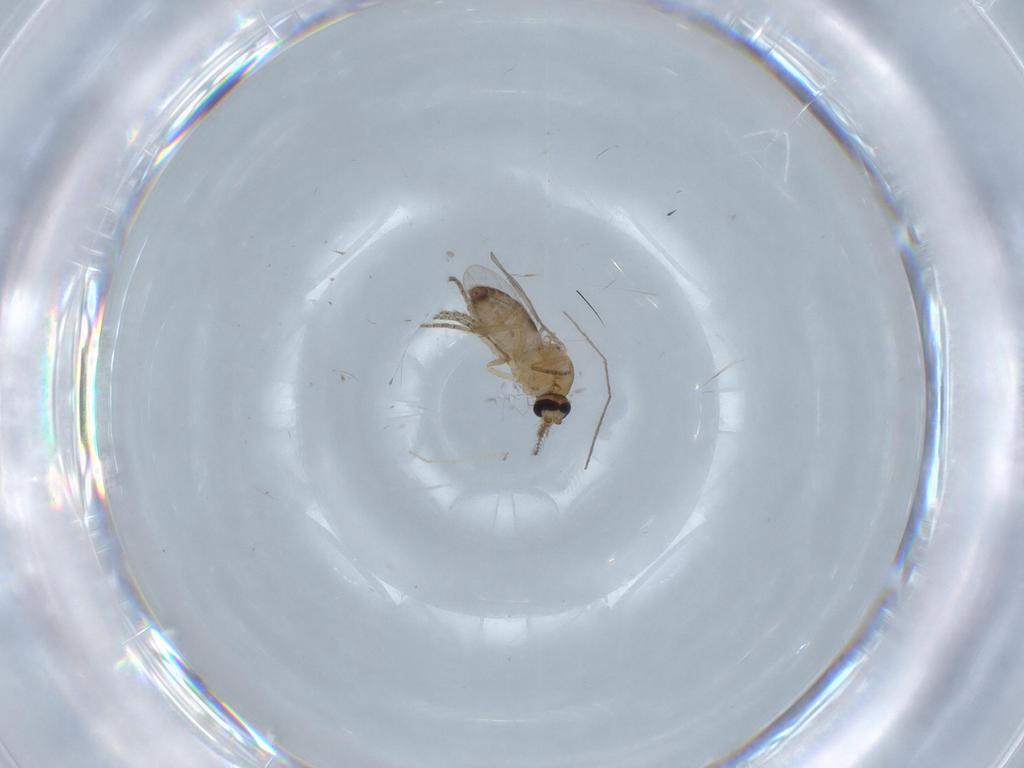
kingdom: Animalia
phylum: Arthropoda
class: Insecta
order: Diptera
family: Ceratopogonidae
